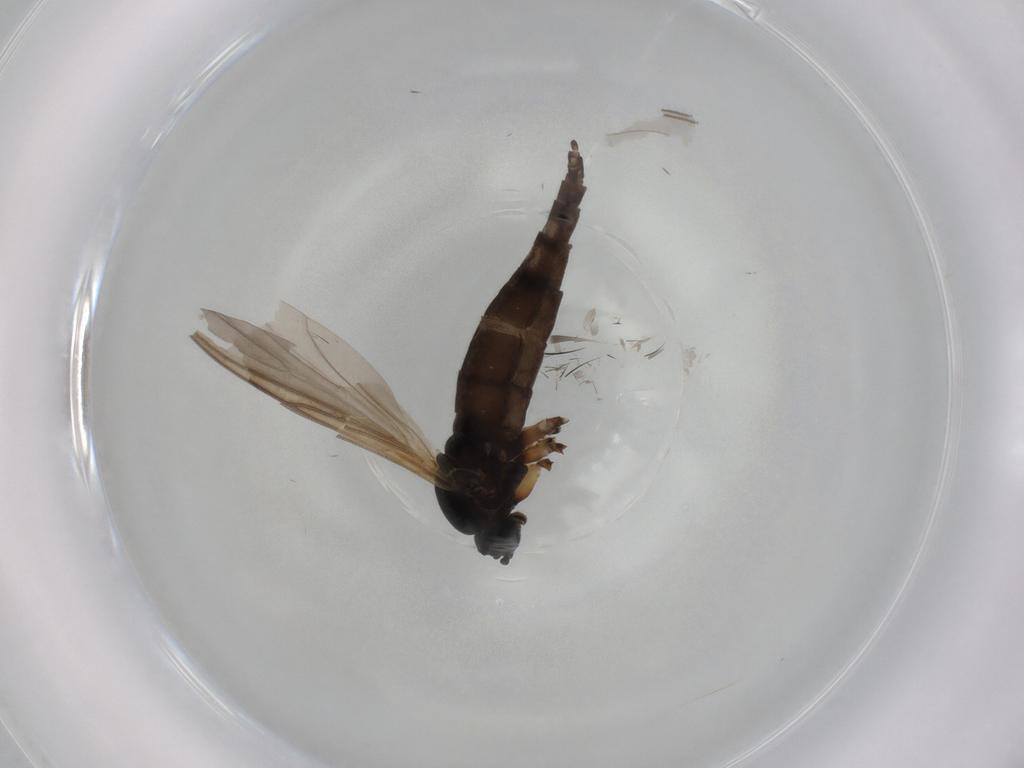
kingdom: Animalia
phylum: Arthropoda
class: Insecta
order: Diptera
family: Sciaridae
